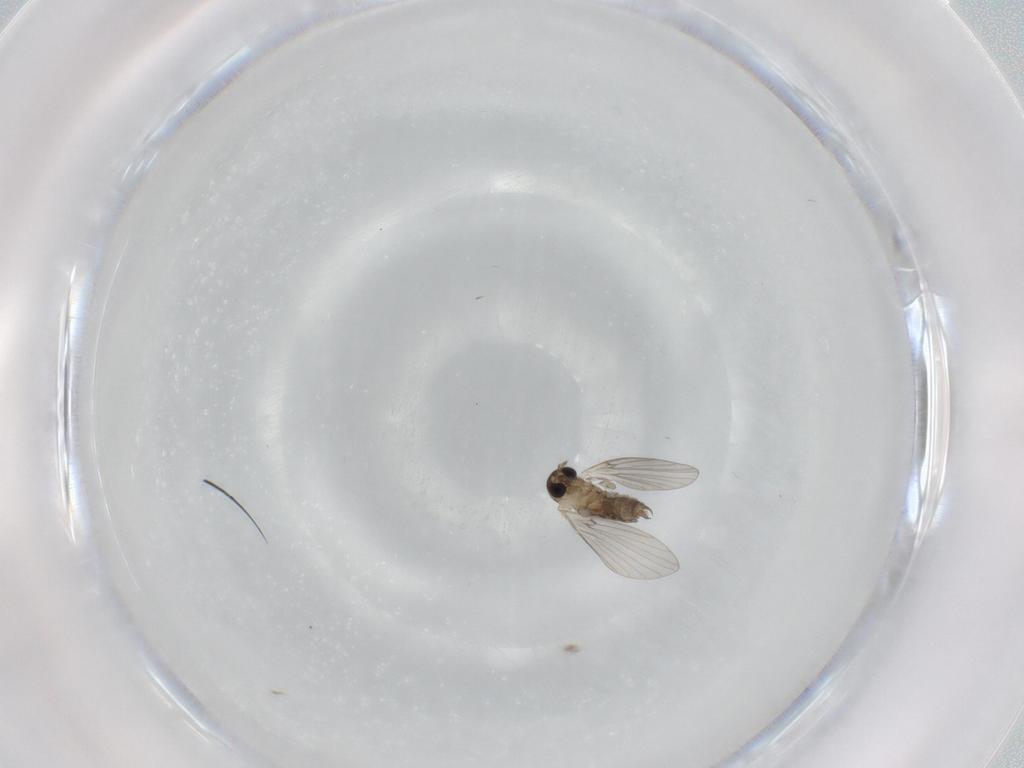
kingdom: Animalia
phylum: Arthropoda
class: Insecta
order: Diptera
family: Psychodidae
